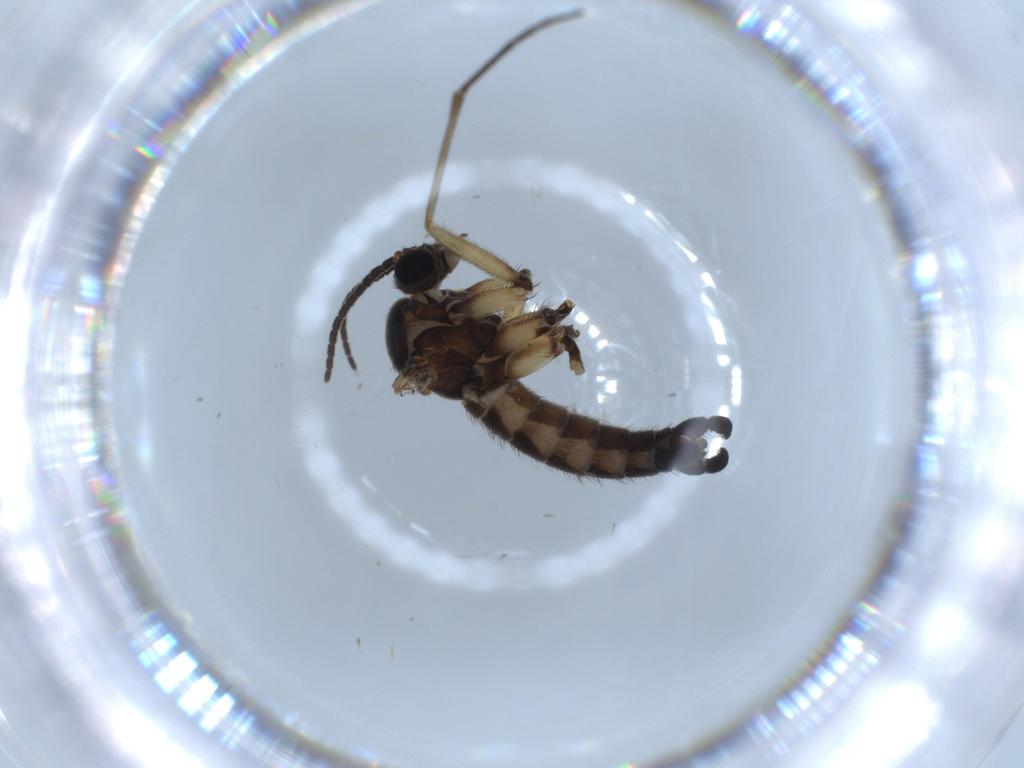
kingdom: Animalia
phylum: Arthropoda
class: Insecta
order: Diptera
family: Sciaridae
